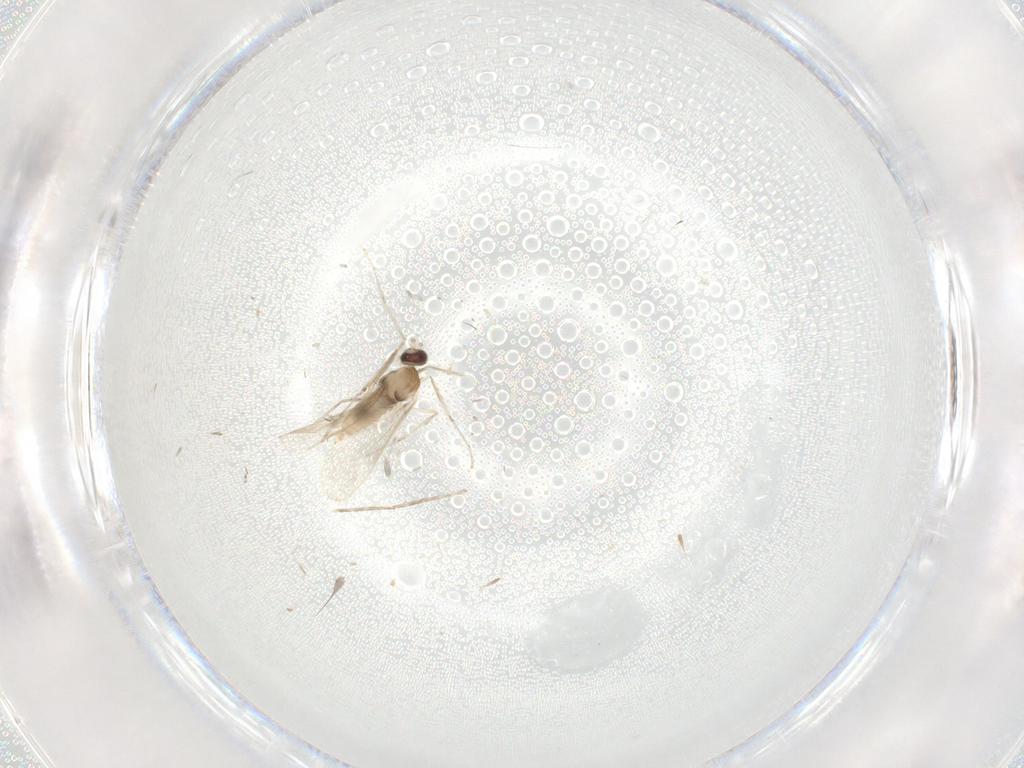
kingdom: Animalia
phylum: Arthropoda
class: Insecta
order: Diptera
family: Cecidomyiidae
